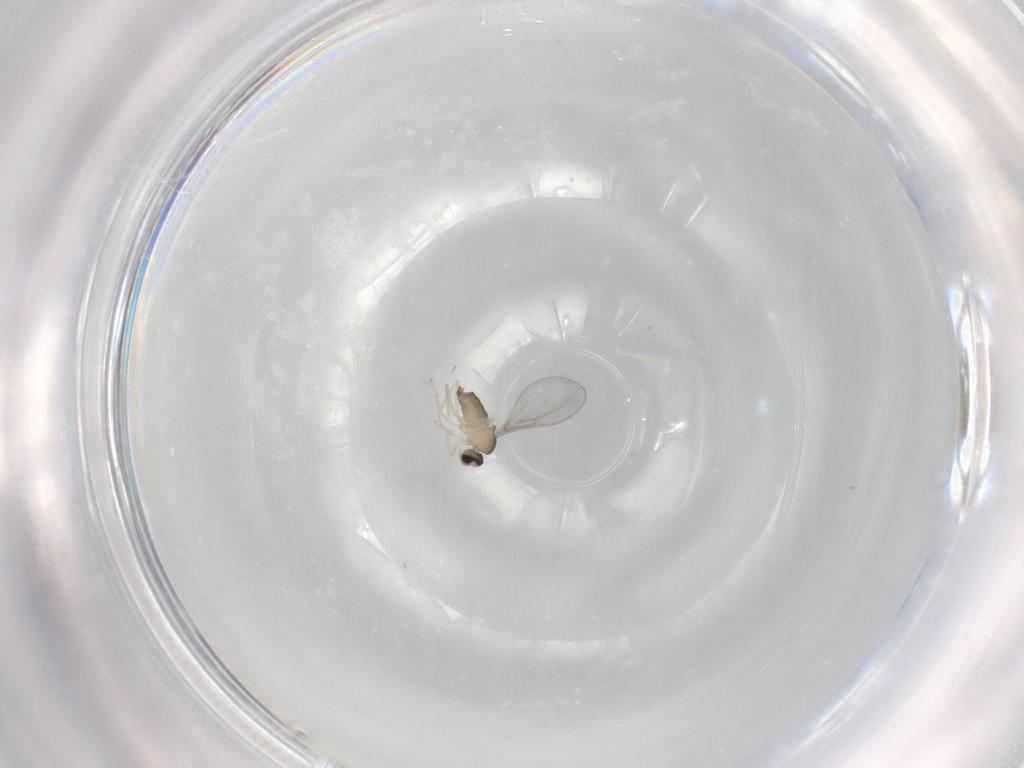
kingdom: Animalia
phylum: Arthropoda
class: Insecta
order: Diptera
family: Cecidomyiidae
